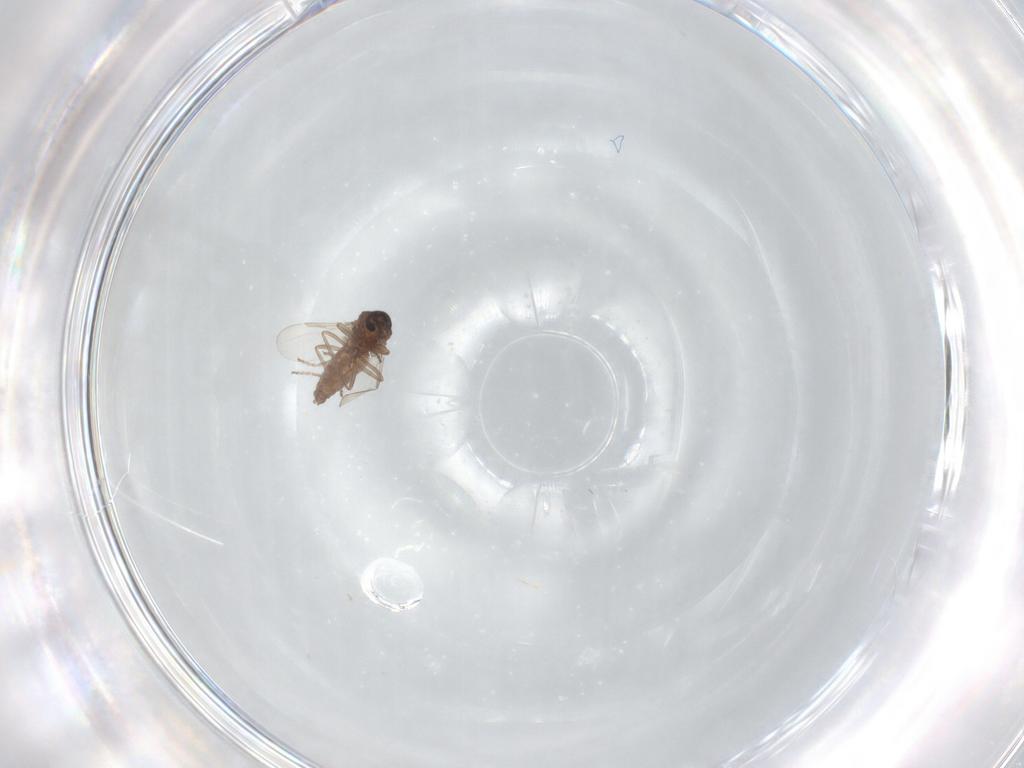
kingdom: Animalia
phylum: Arthropoda
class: Insecta
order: Diptera
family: Ceratopogonidae
